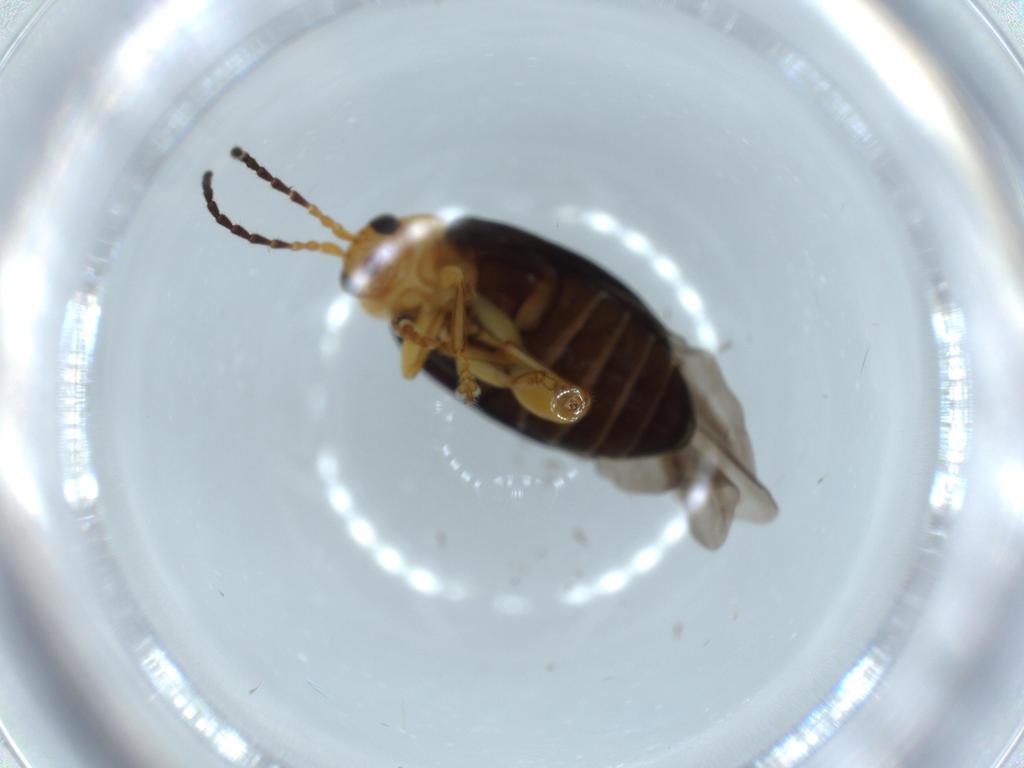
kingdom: Animalia
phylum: Arthropoda
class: Insecta
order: Coleoptera
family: Chrysomelidae
